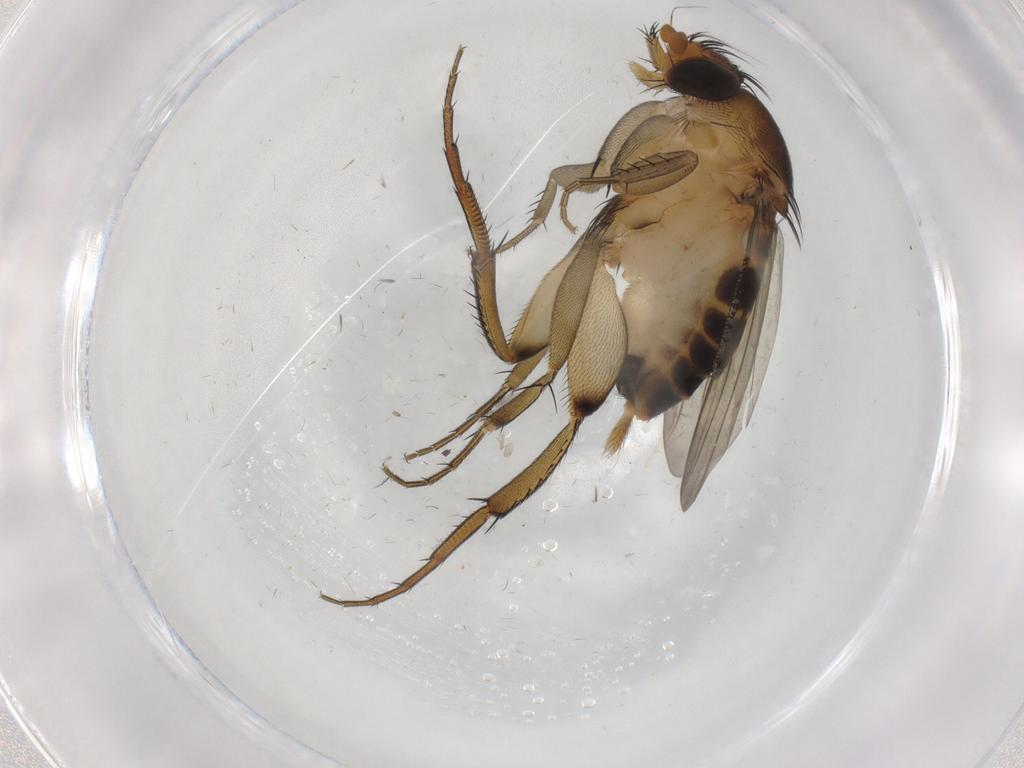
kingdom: Animalia
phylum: Arthropoda
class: Insecta
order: Diptera
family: Phoridae
